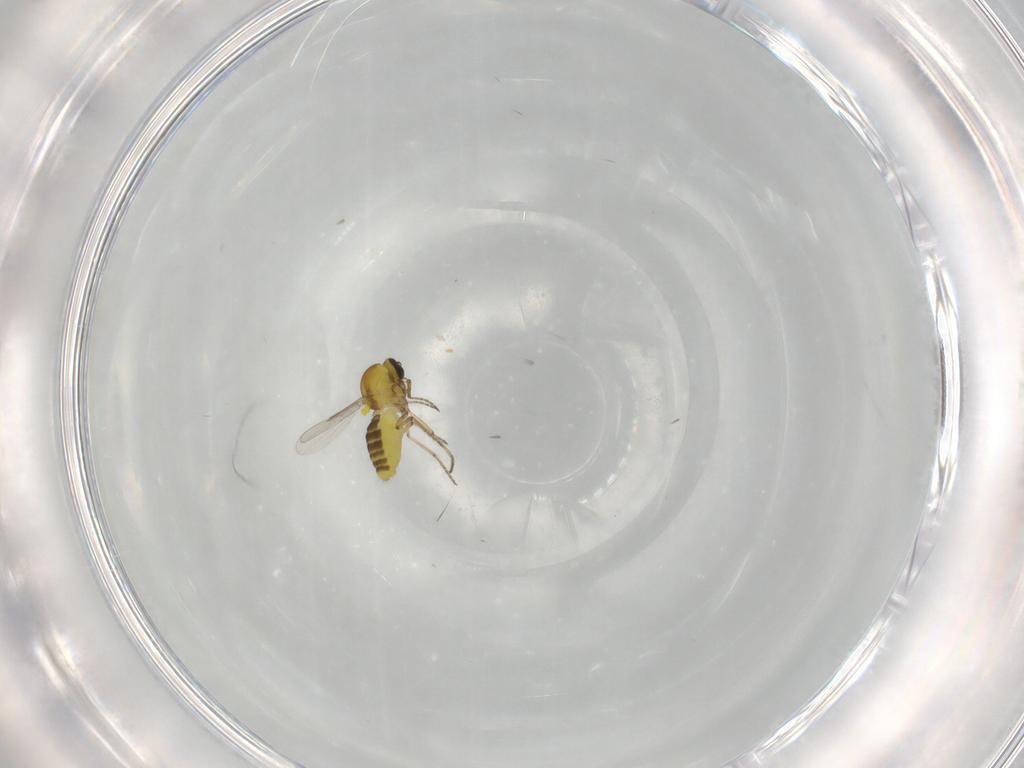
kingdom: Animalia
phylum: Arthropoda
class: Insecta
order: Diptera
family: Ceratopogonidae
